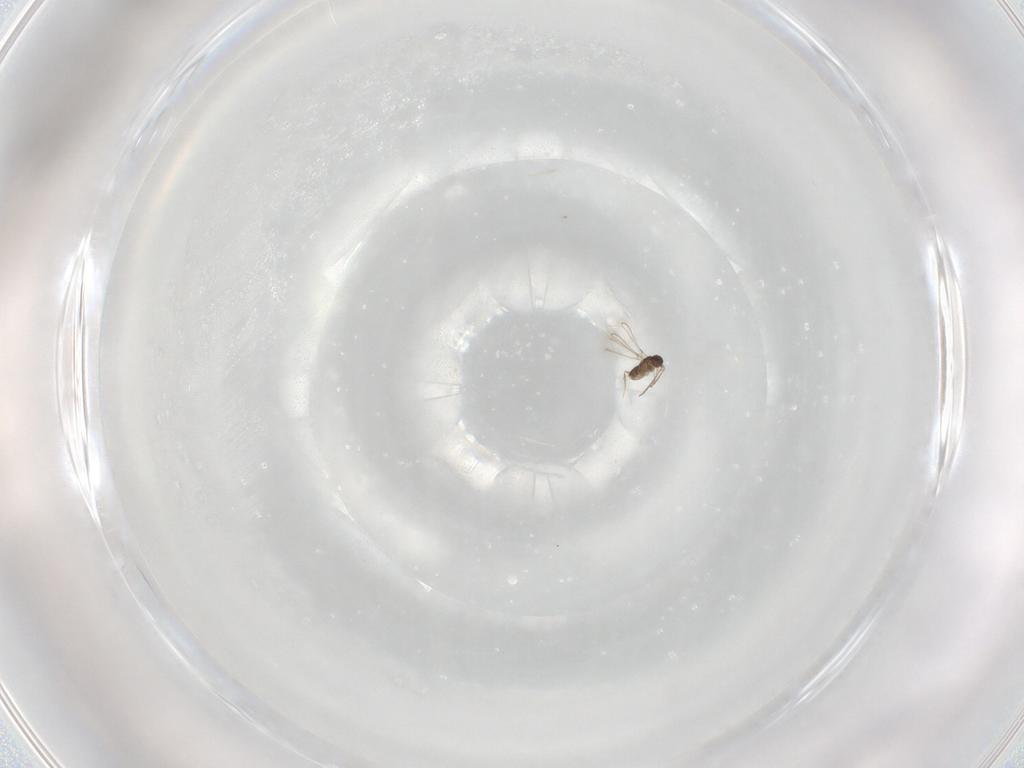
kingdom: Animalia
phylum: Arthropoda
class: Insecta
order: Hymenoptera
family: Mymaridae
